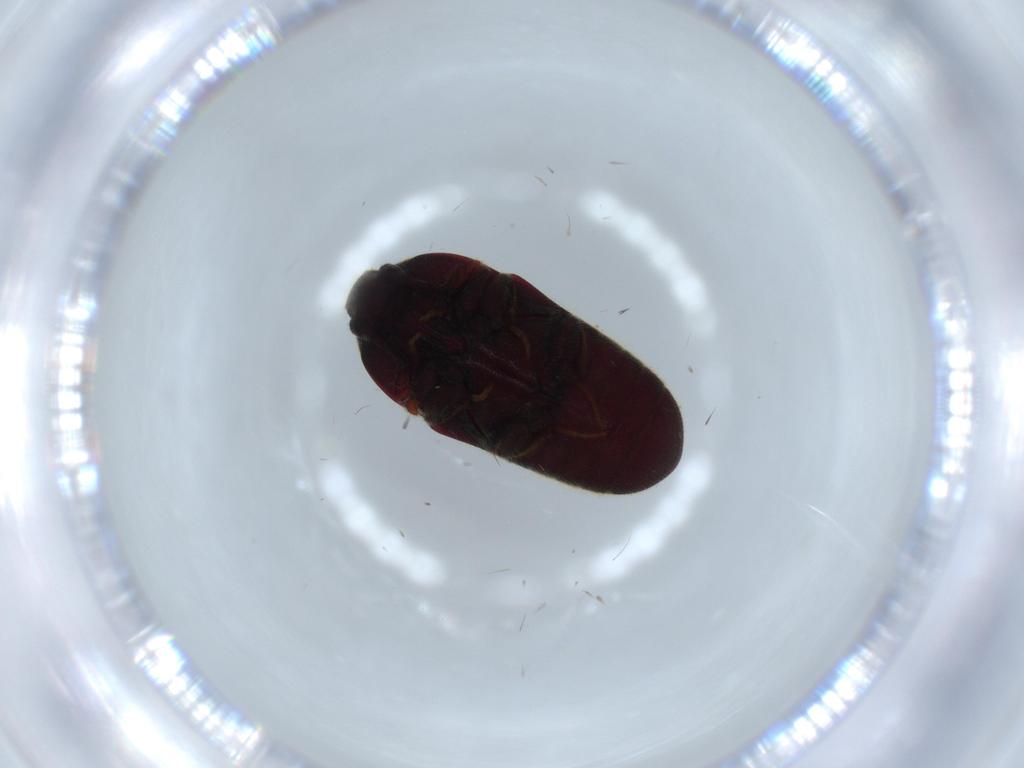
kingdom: Animalia
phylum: Arthropoda
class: Insecta
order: Coleoptera
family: Throscidae
